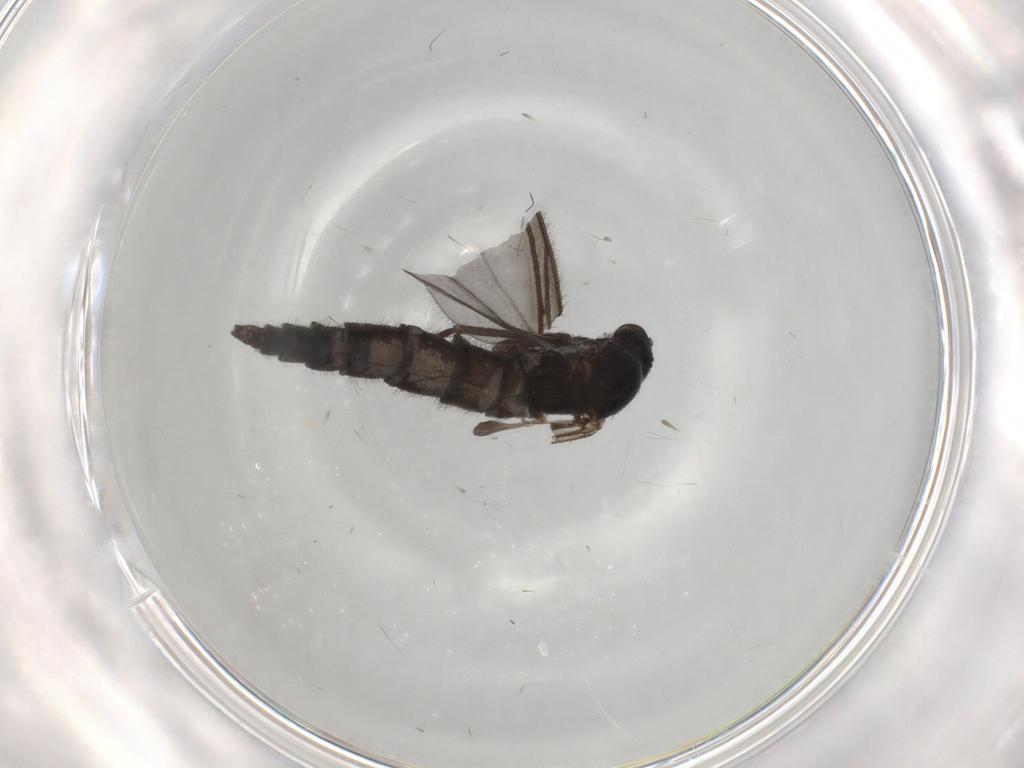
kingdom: Animalia
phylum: Arthropoda
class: Insecta
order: Diptera
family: Sciaridae
